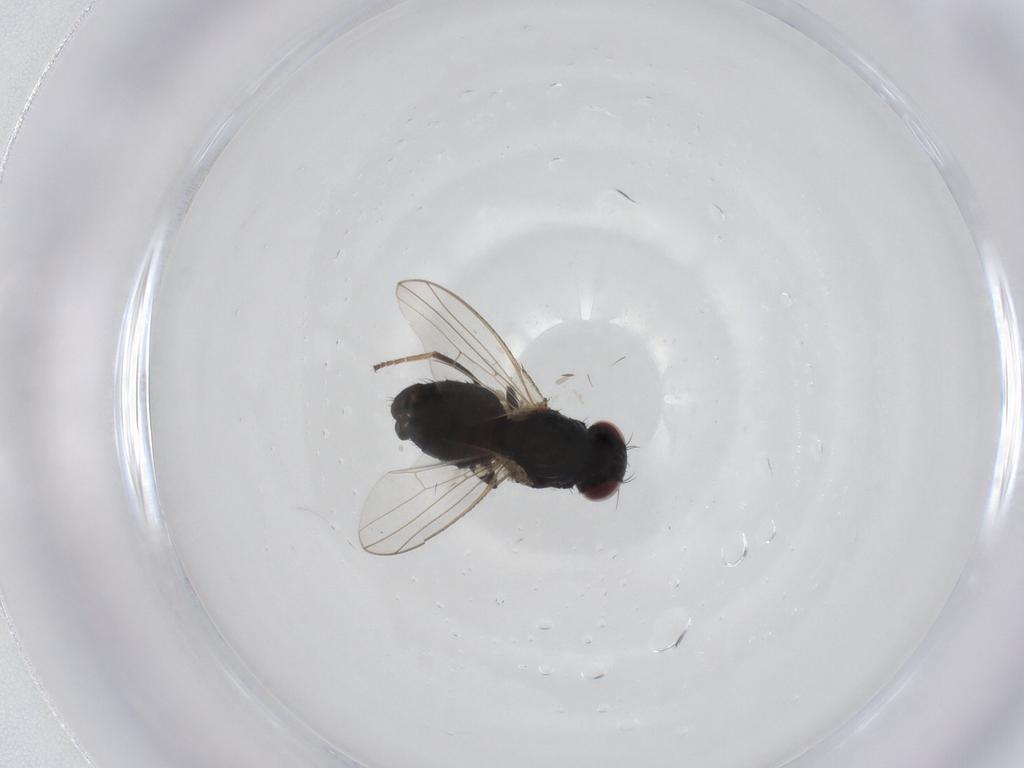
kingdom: Animalia
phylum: Arthropoda
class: Insecta
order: Diptera
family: Carnidae
